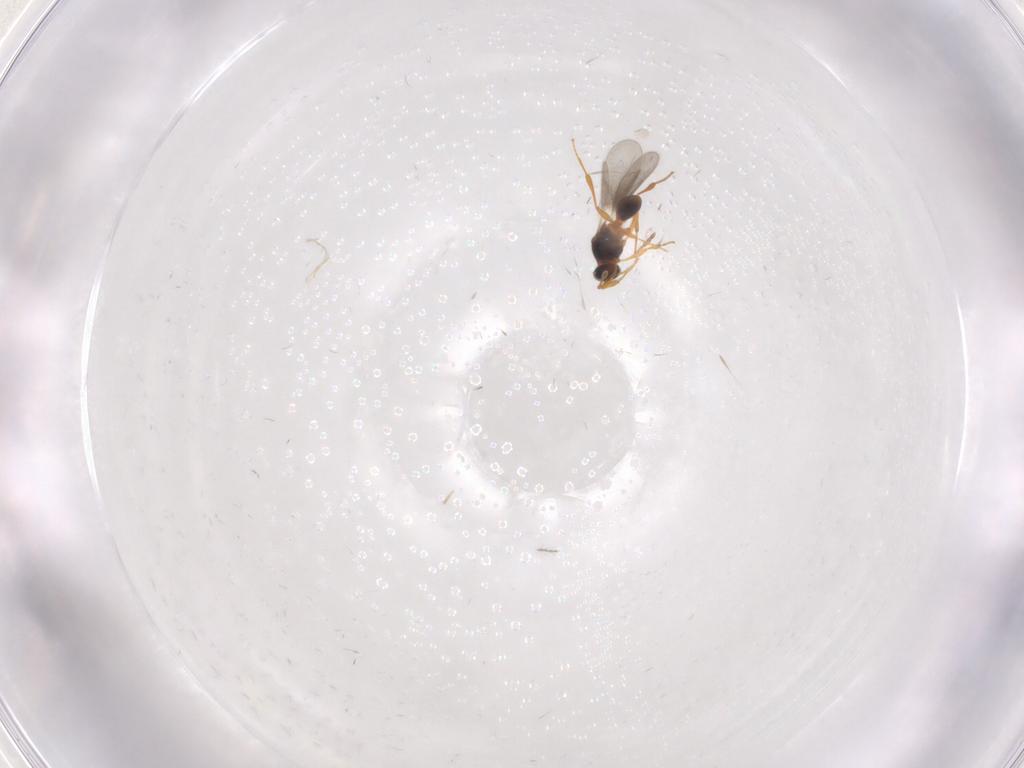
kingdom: Animalia
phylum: Arthropoda
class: Insecta
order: Hymenoptera
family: Platygastridae
